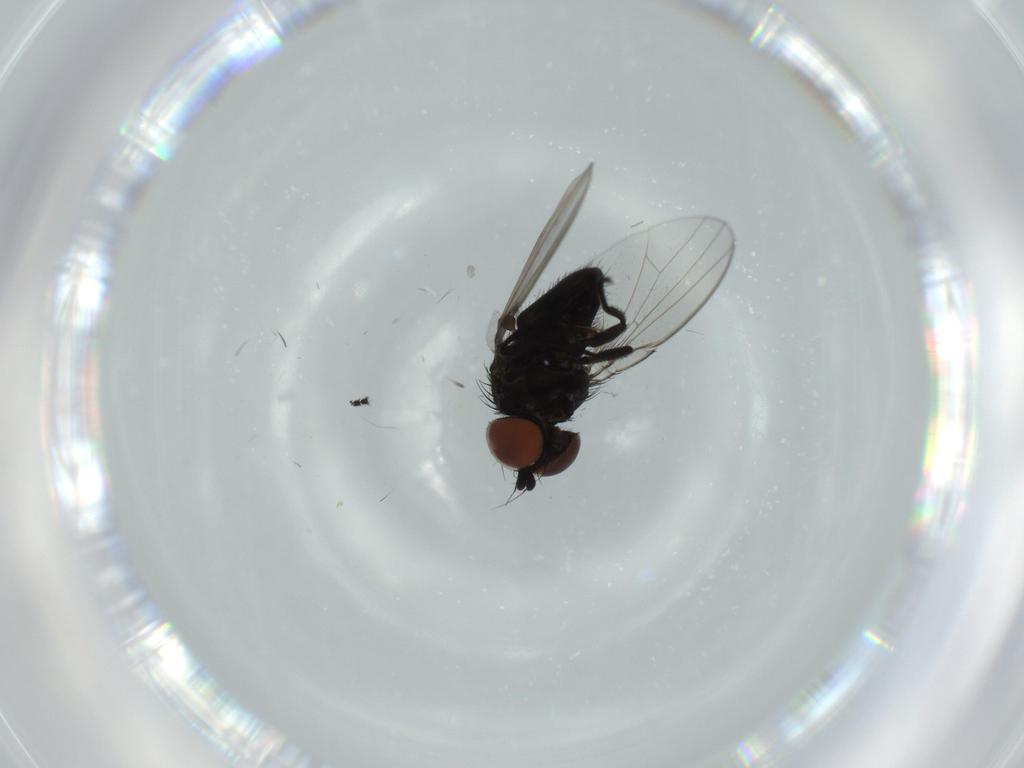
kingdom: Animalia
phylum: Arthropoda
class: Insecta
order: Diptera
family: Milichiidae
